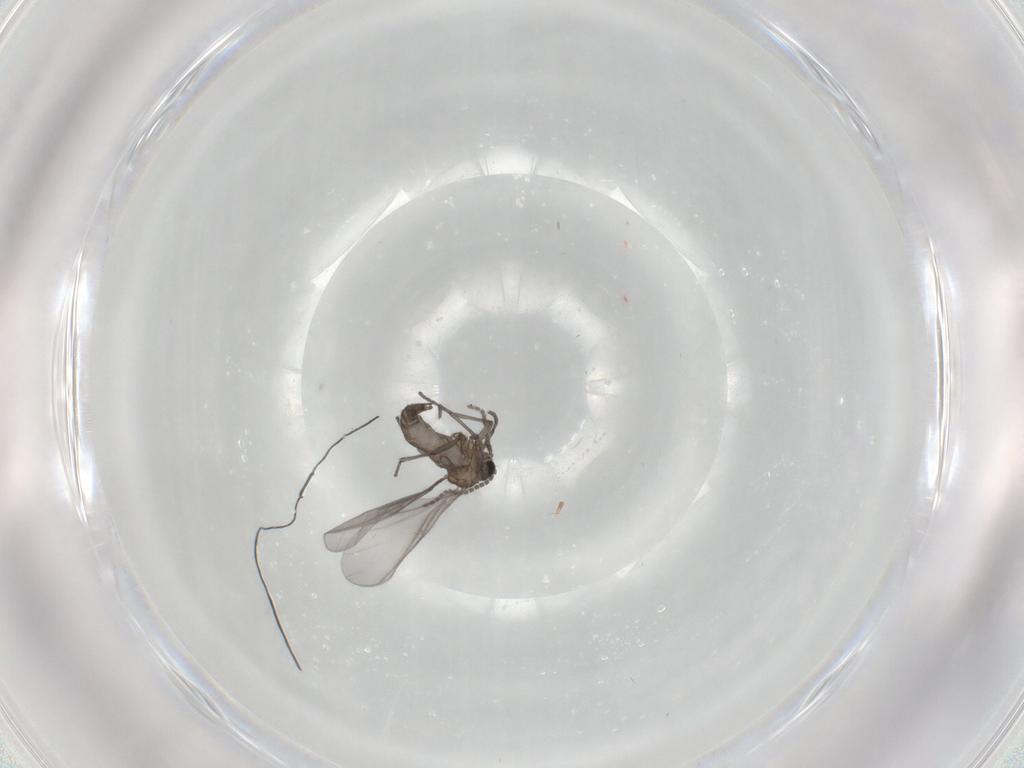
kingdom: Animalia
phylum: Arthropoda
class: Insecta
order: Diptera
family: Sciaridae
